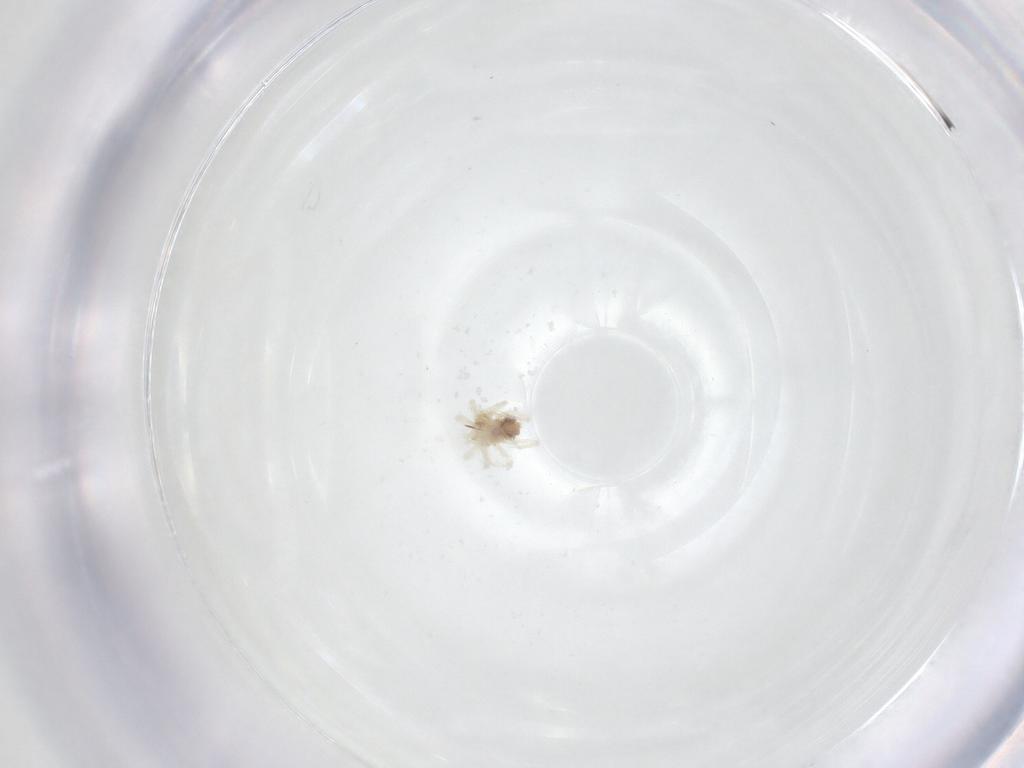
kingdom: Animalia
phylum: Arthropoda
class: Arachnida
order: Trombidiformes
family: Anystidae
